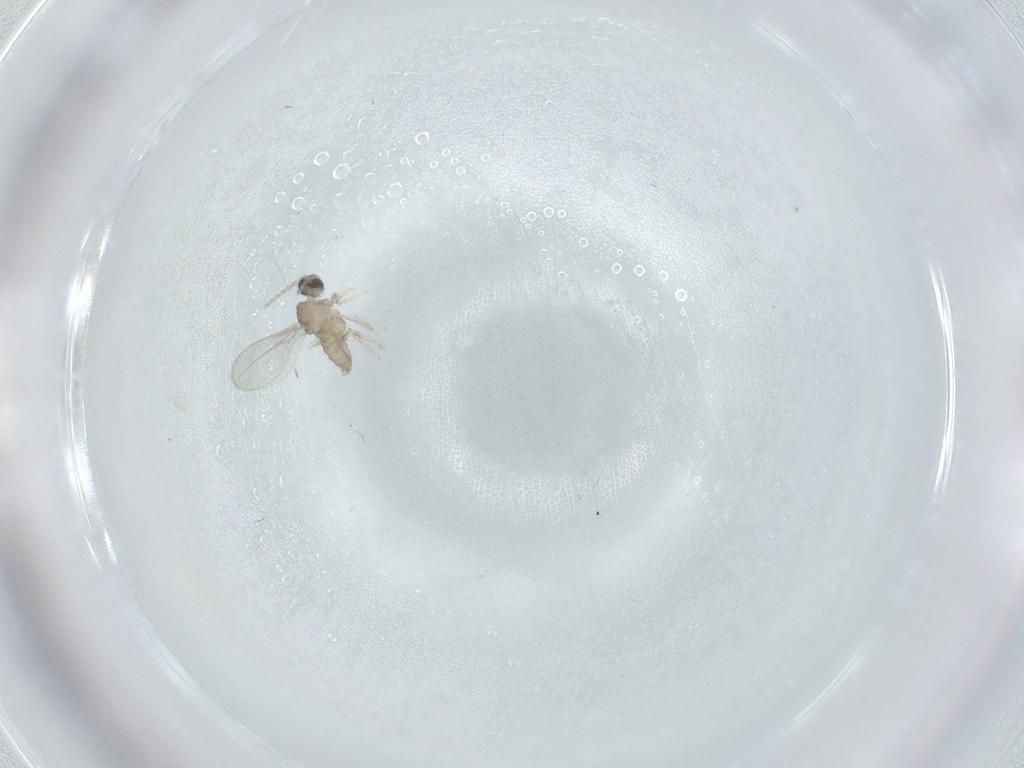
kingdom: Animalia
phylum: Arthropoda
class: Insecta
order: Diptera
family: Cecidomyiidae
